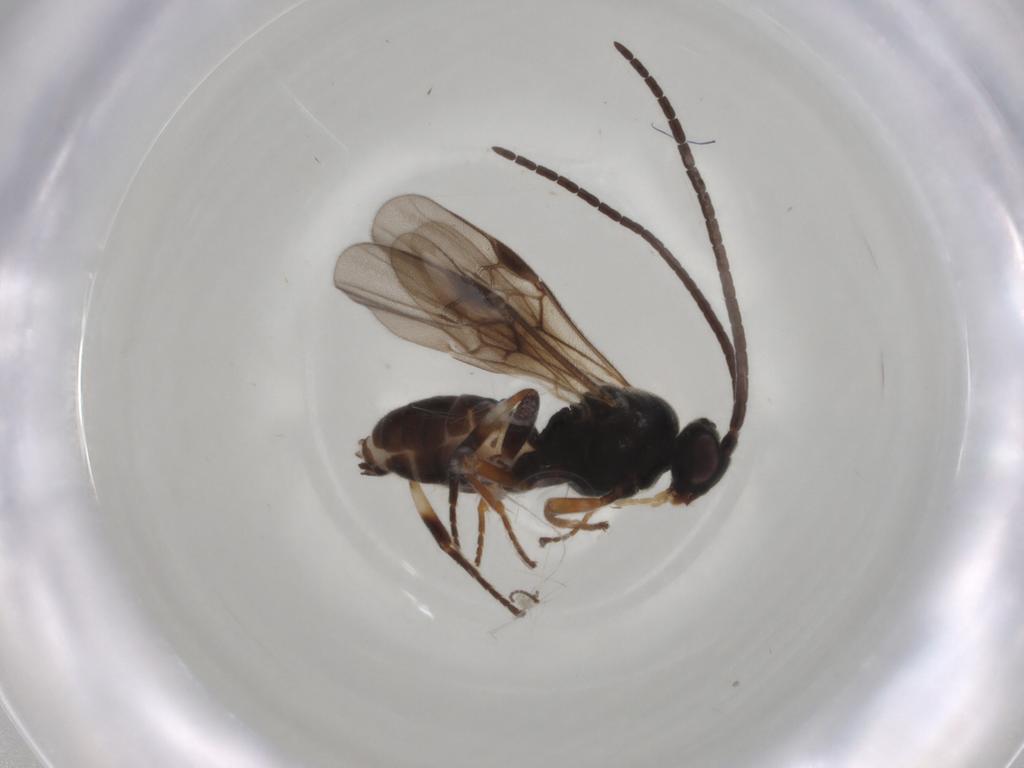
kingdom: Animalia
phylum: Arthropoda
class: Insecta
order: Hymenoptera
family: Braconidae
